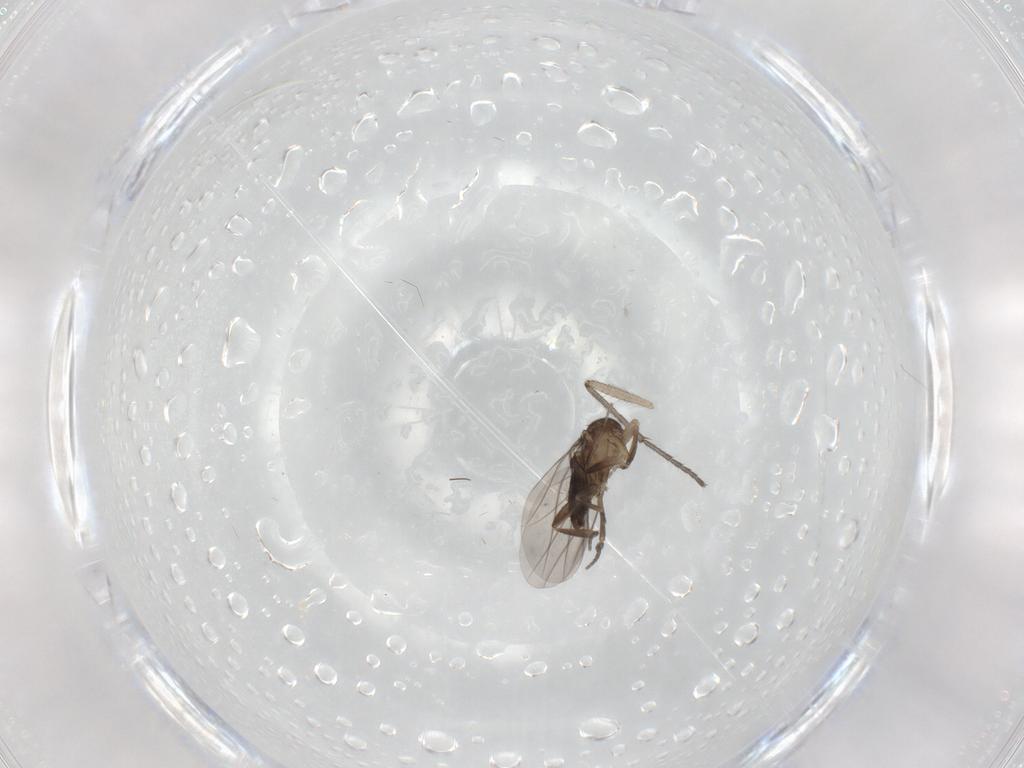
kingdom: Animalia
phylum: Arthropoda
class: Insecta
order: Diptera
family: Sciaridae
